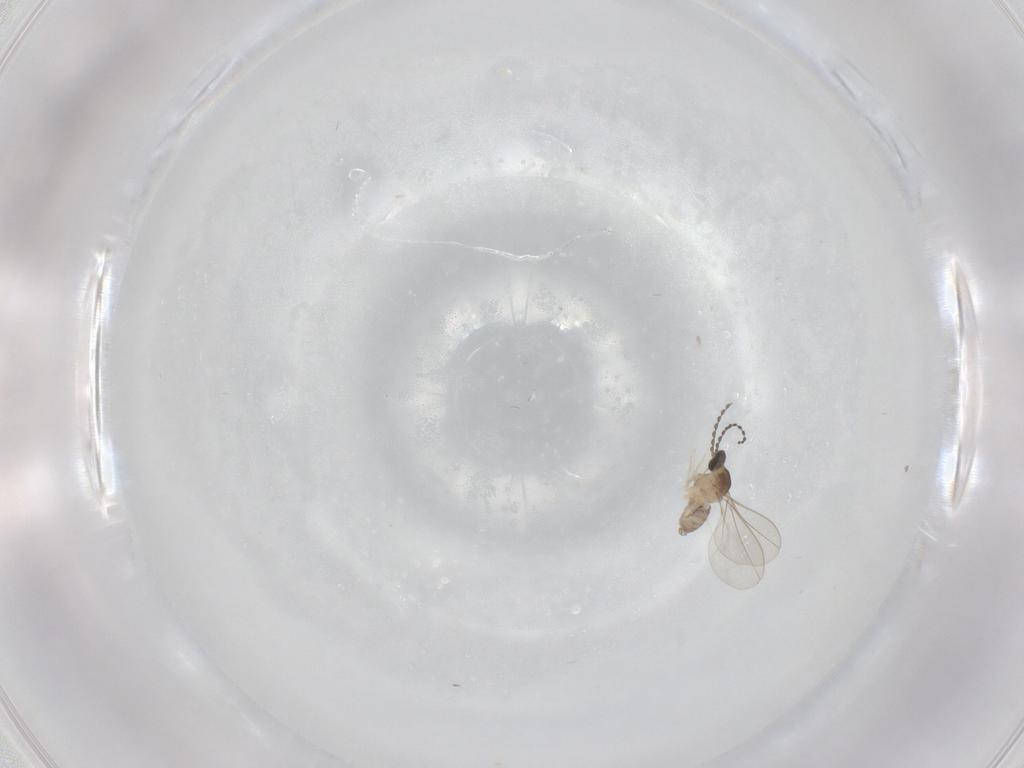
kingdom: Animalia
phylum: Arthropoda
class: Insecta
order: Diptera
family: Cecidomyiidae
